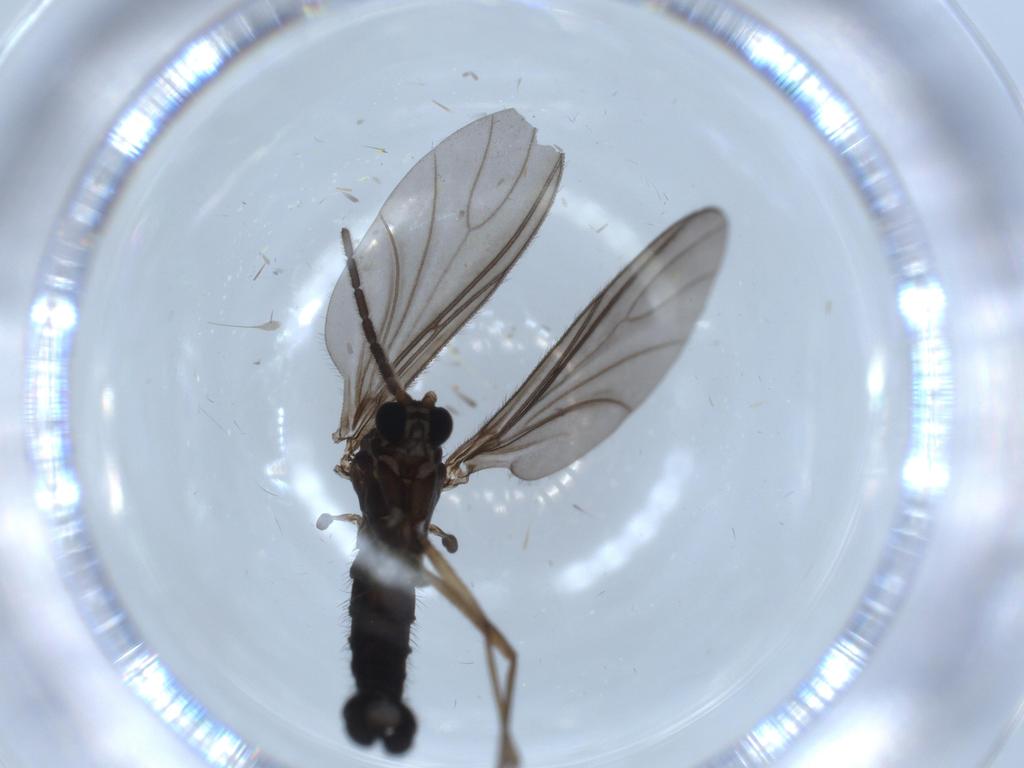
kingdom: Animalia
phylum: Arthropoda
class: Insecta
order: Diptera
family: Sciaridae
